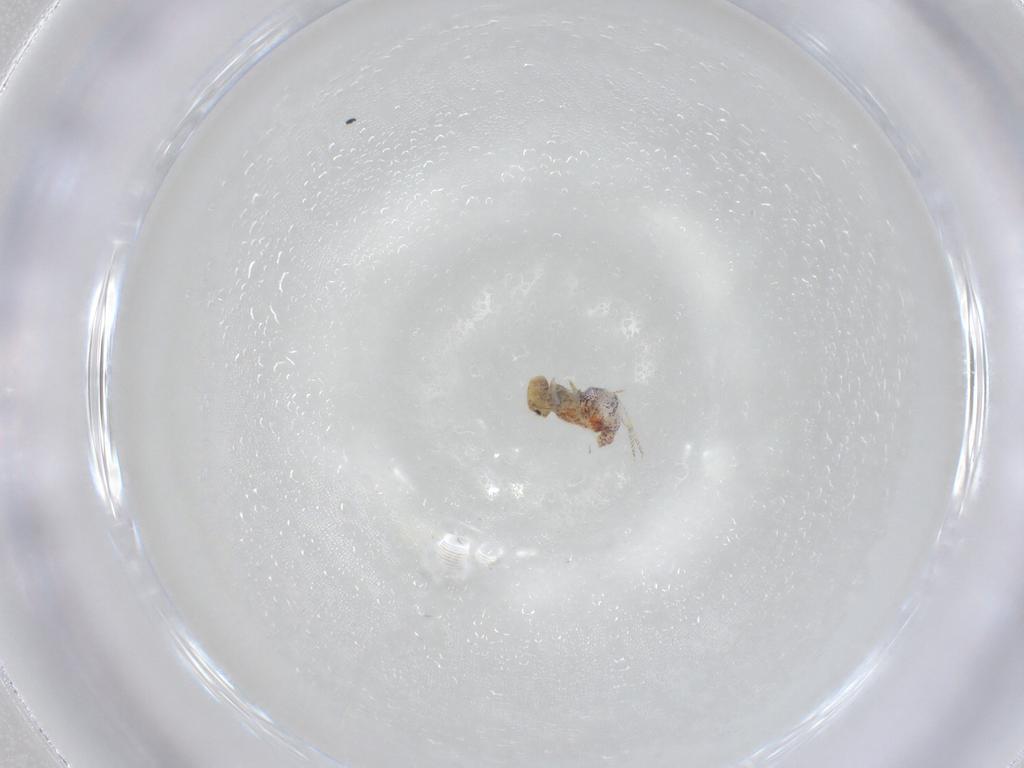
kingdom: Animalia
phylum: Arthropoda
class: Collembola
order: Symphypleona
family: Bourletiellidae
